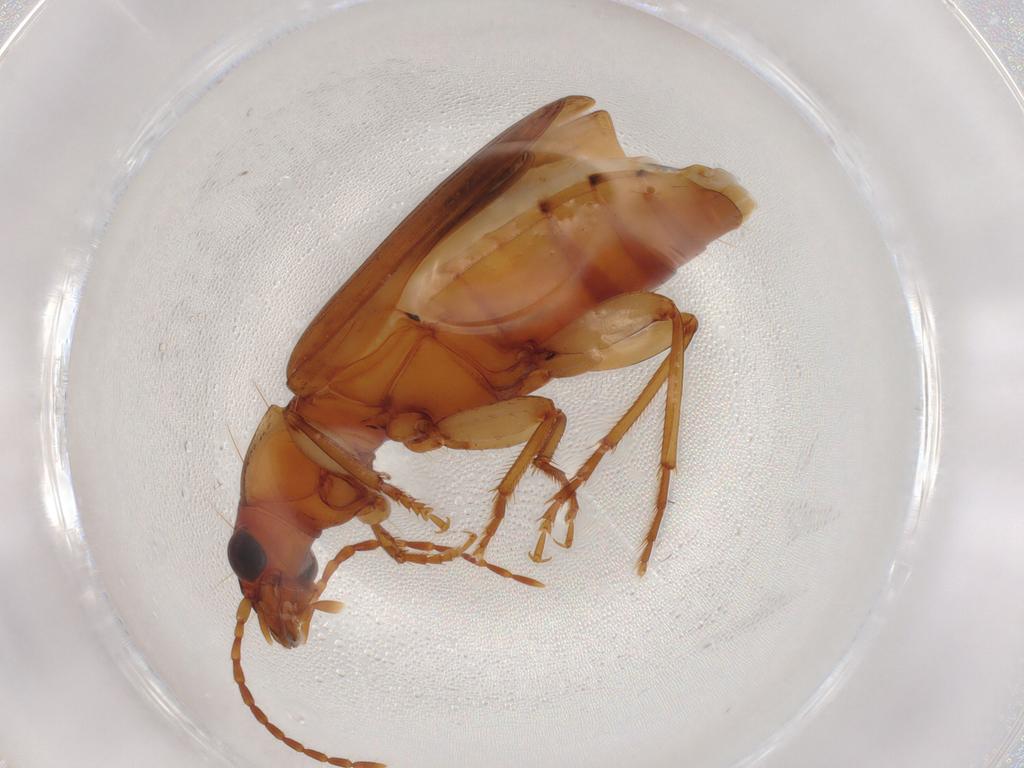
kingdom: Animalia
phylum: Arthropoda
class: Insecta
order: Coleoptera
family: Carabidae
